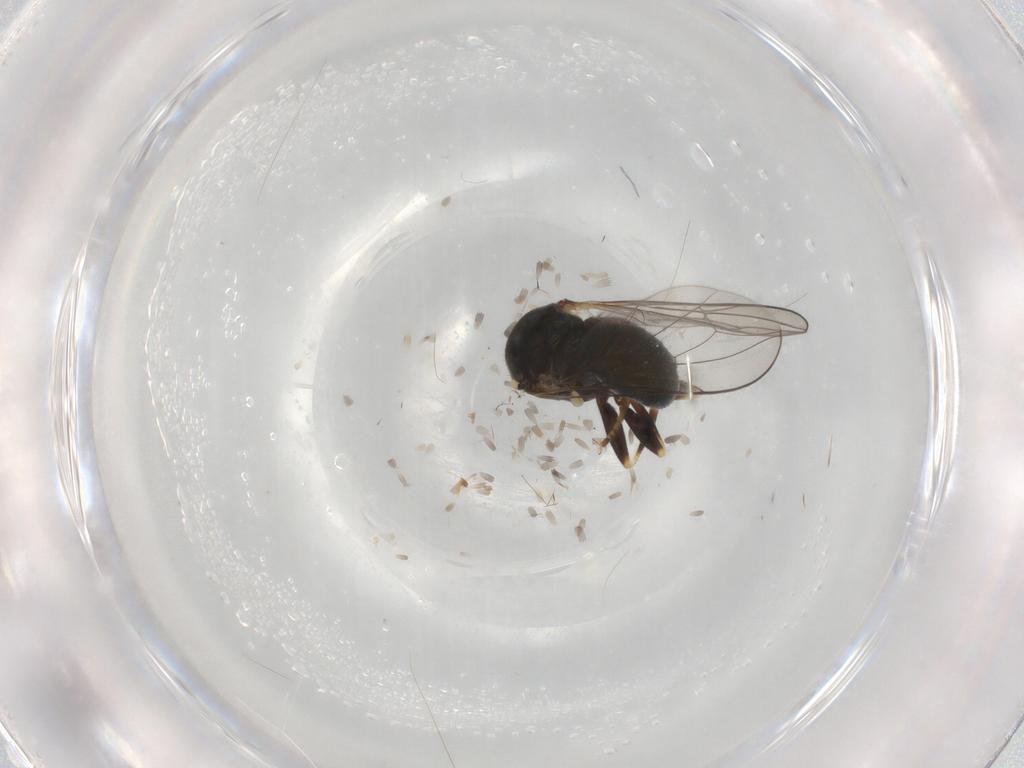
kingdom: Animalia
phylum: Arthropoda
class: Insecta
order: Diptera
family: Pipunculidae
